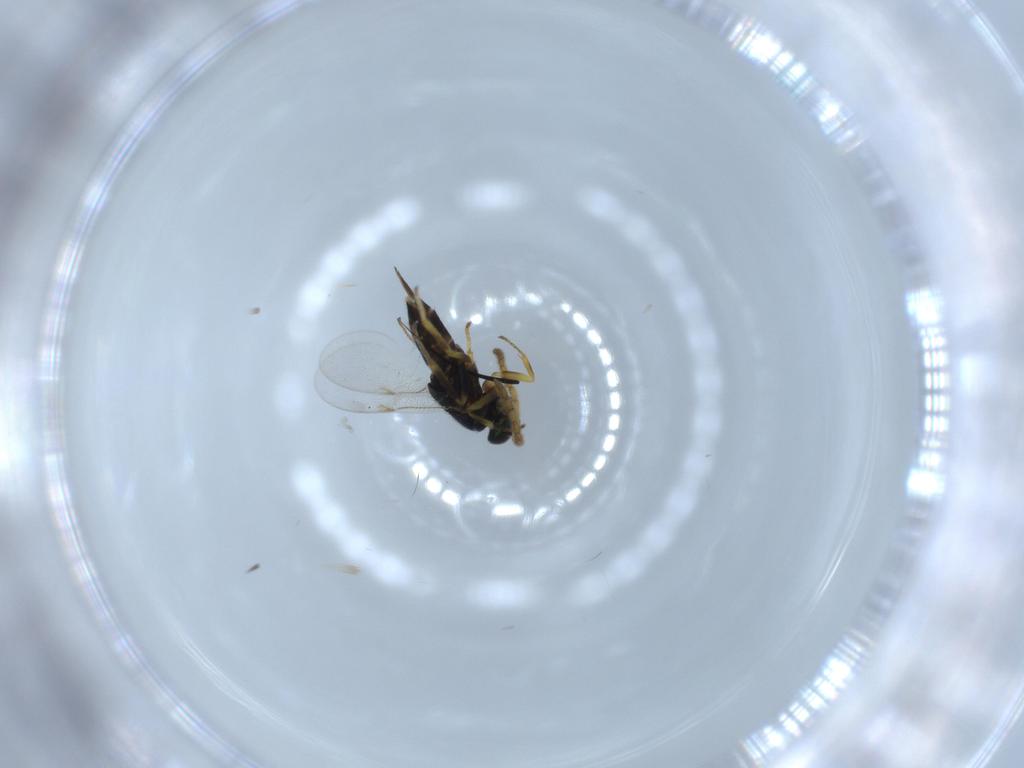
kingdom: Animalia
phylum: Arthropoda
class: Insecta
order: Hymenoptera
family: Encyrtidae
